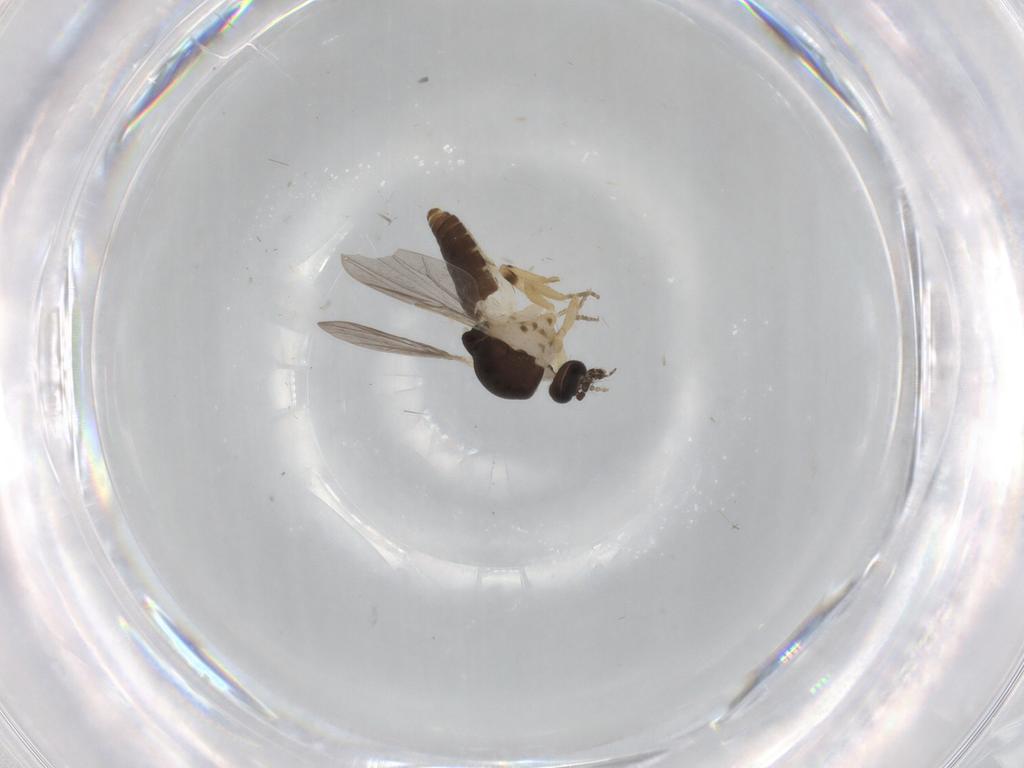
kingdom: Animalia
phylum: Arthropoda
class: Insecta
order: Diptera
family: Ceratopogonidae
